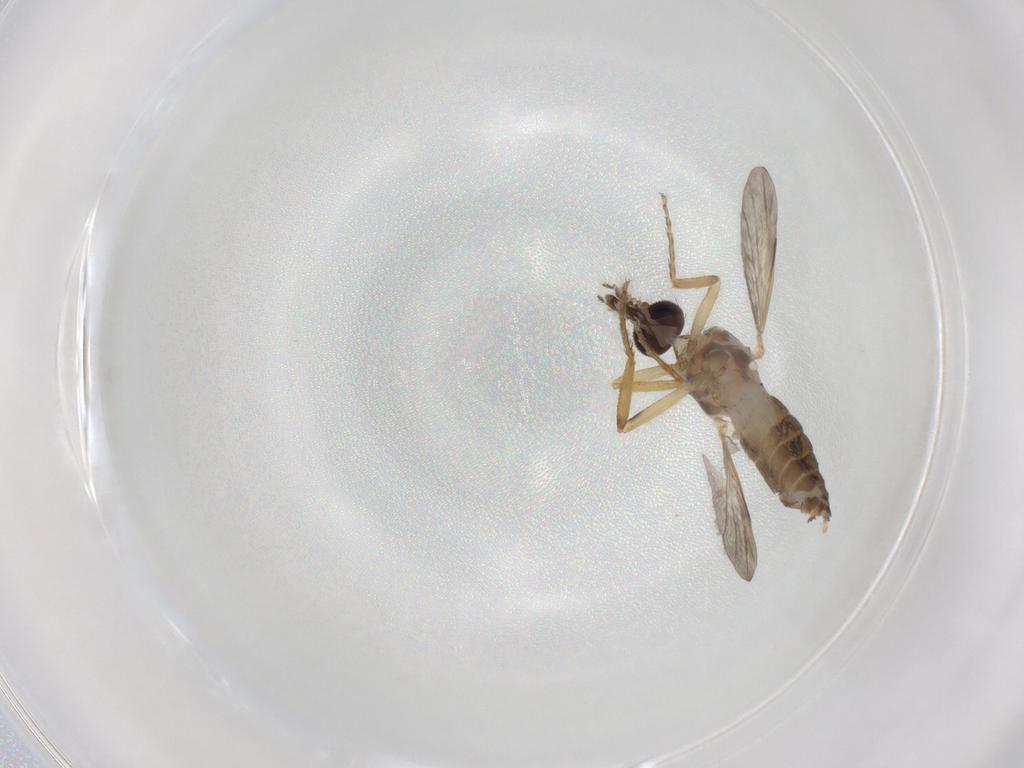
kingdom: Animalia
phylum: Arthropoda
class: Insecta
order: Diptera
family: Ceratopogonidae
